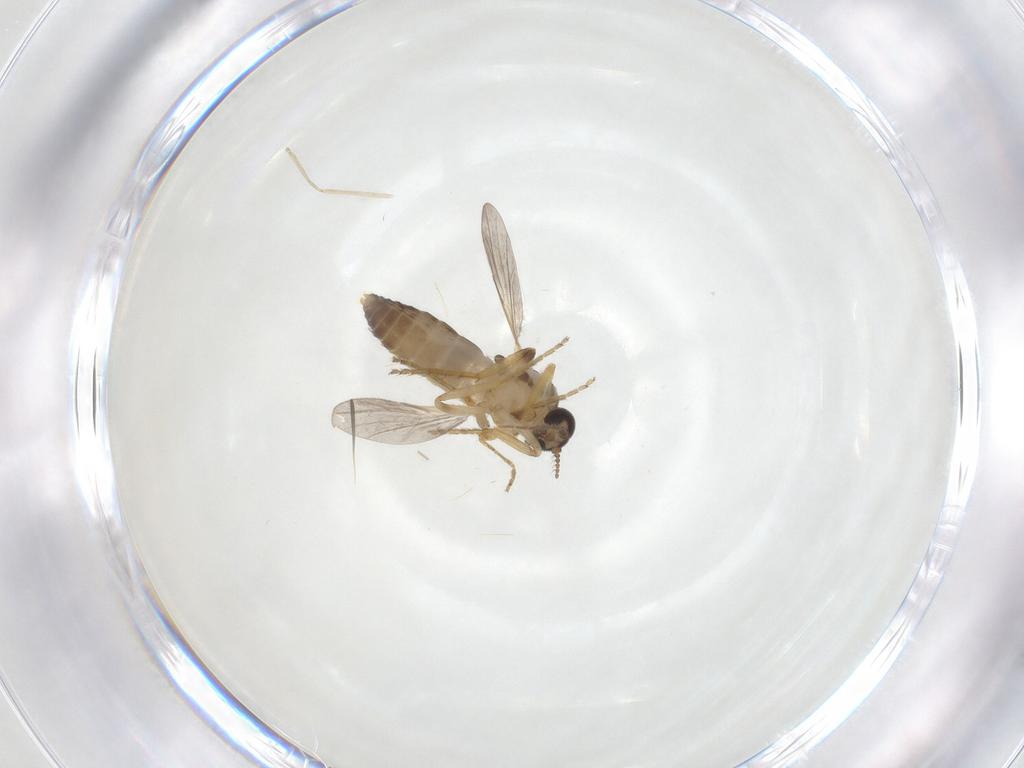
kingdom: Animalia
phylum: Arthropoda
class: Insecta
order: Diptera
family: Ceratopogonidae
